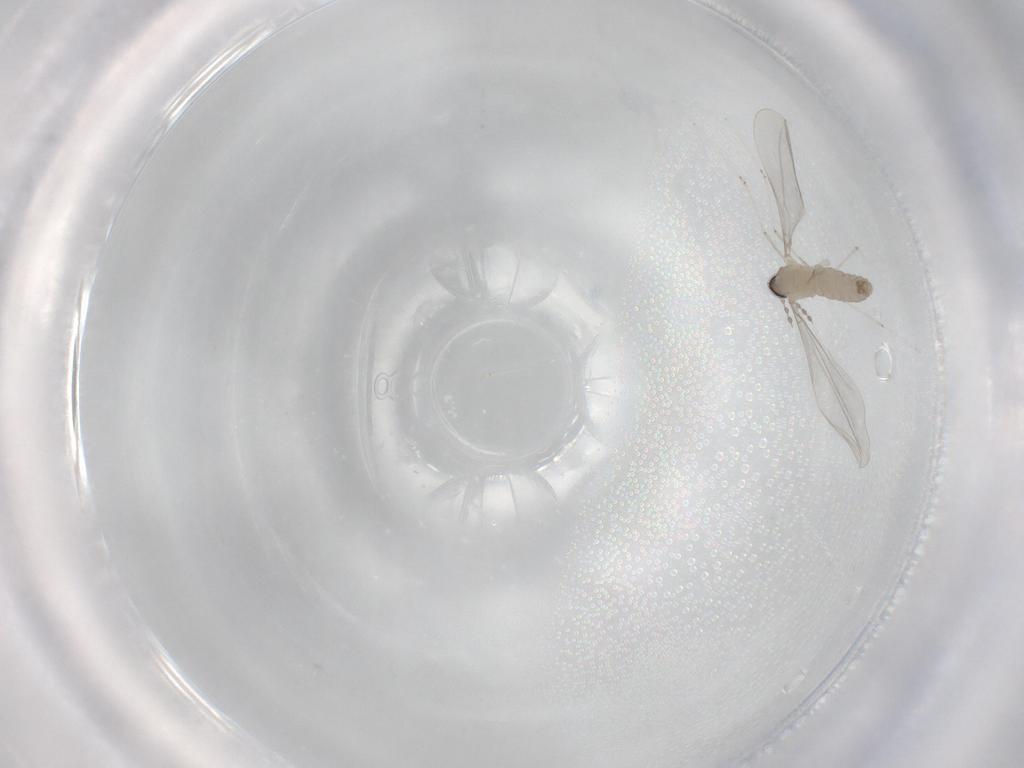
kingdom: Animalia
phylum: Arthropoda
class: Insecta
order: Diptera
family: Cecidomyiidae
